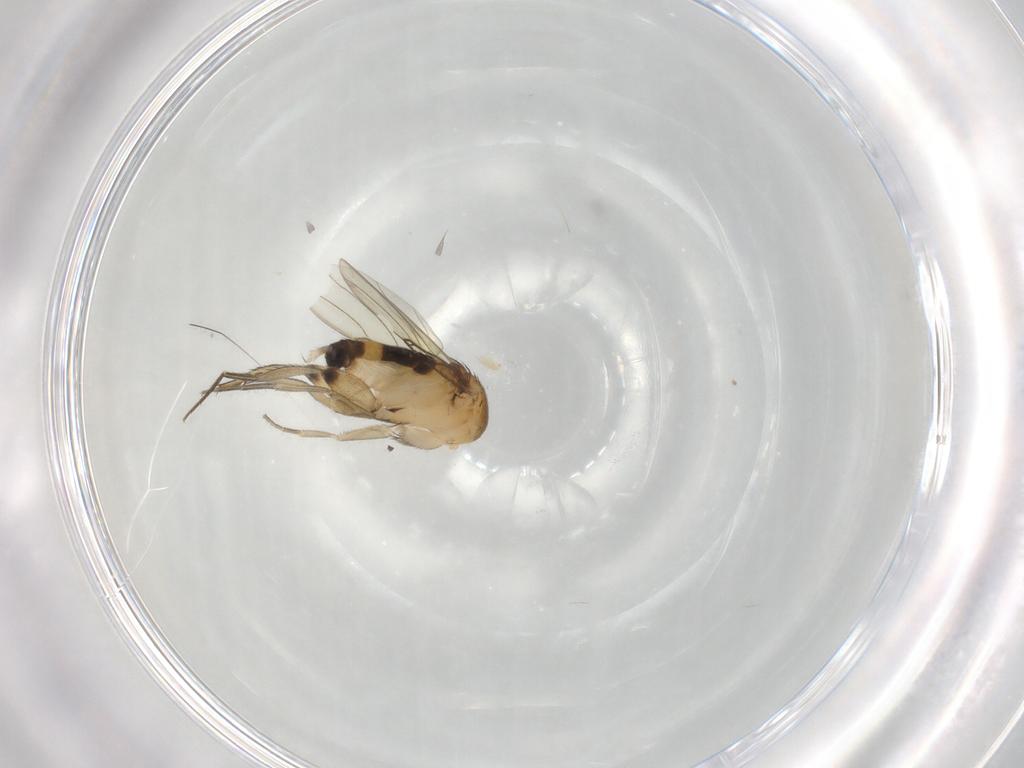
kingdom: Animalia
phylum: Arthropoda
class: Insecta
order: Diptera
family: Phoridae
